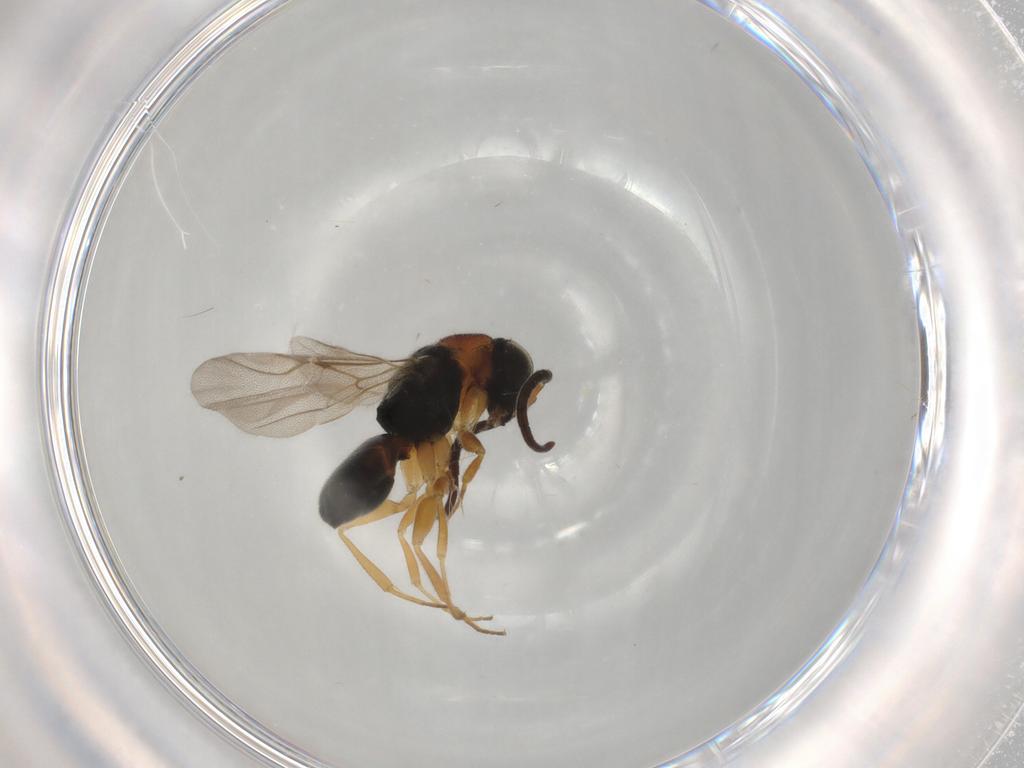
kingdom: Animalia
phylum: Arthropoda
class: Insecta
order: Hymenoptera
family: Chrysididae
